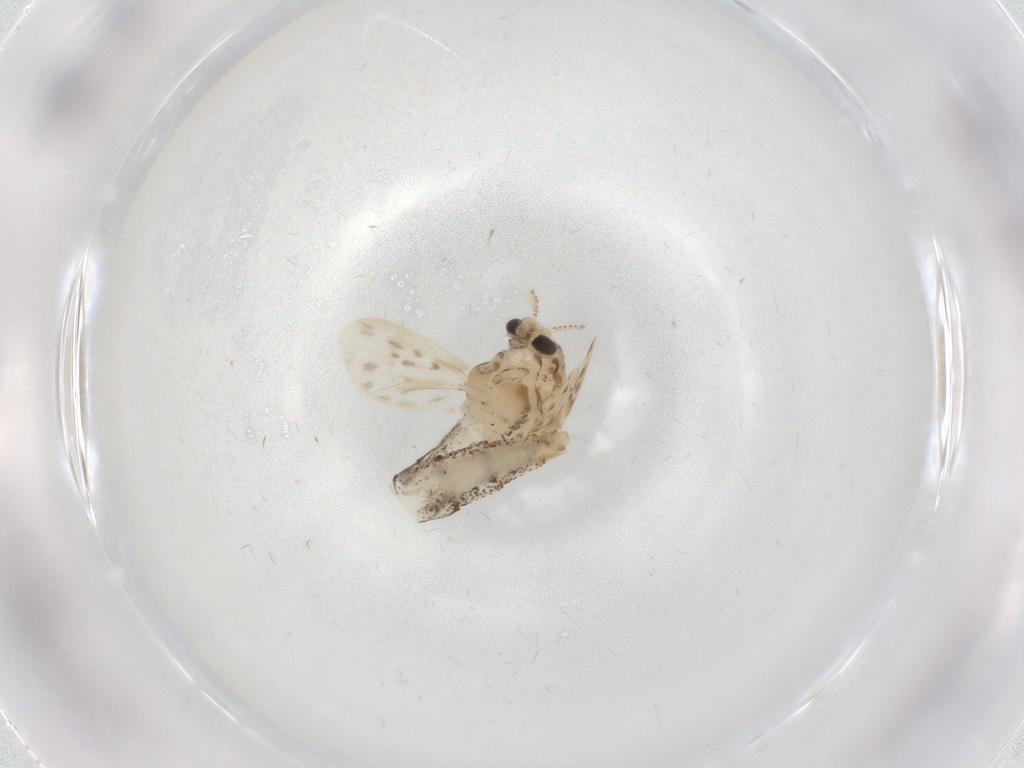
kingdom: Animalia
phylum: Arthropoda
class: Insecta
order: Diptera
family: Chaoboridae
